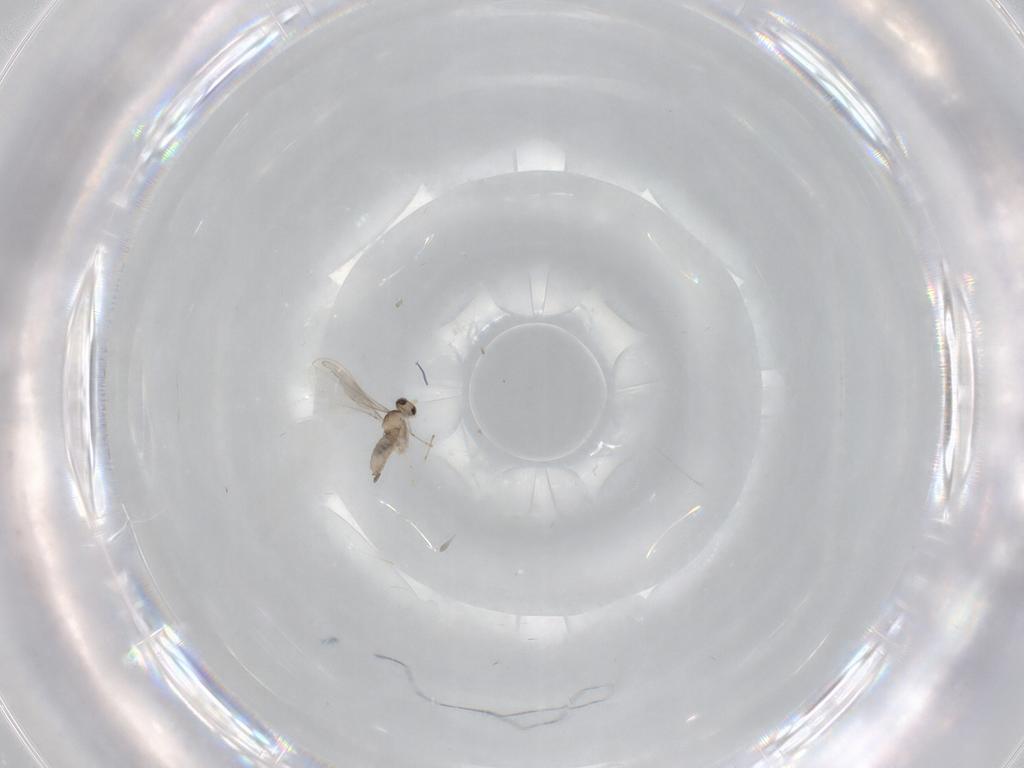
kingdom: Animalia
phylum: Arthropoda
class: Insecta
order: Diptera
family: Cecidomyiidae
